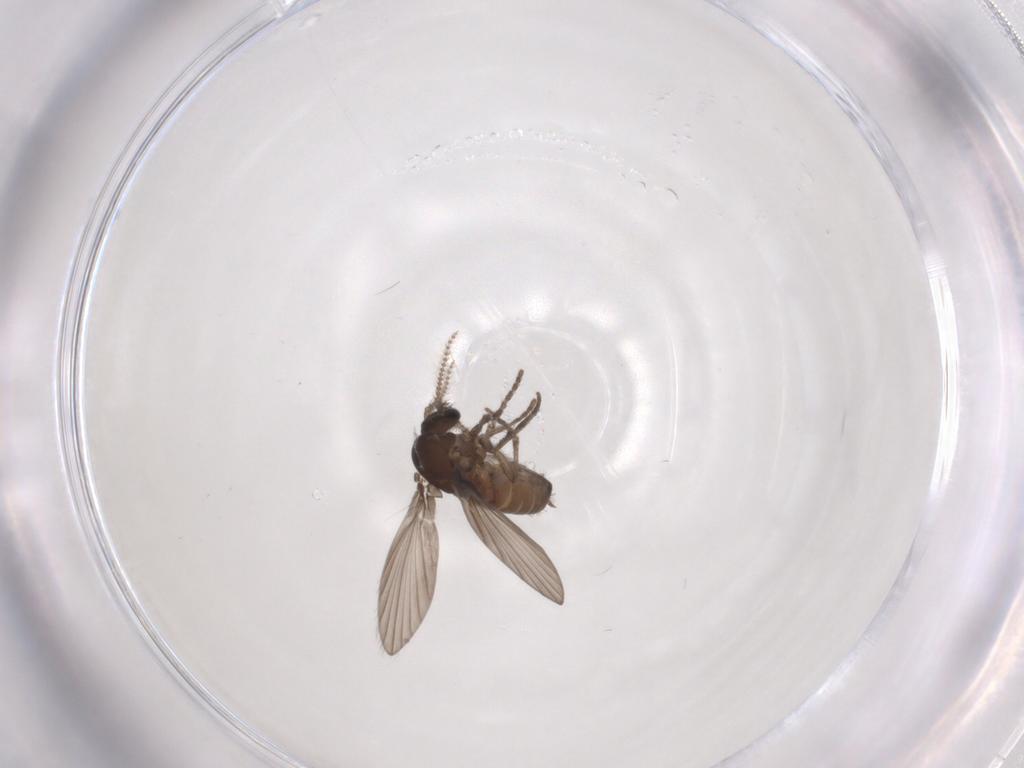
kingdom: Animalia
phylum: Arthropoda
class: Insecta
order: Diptera
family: Psychodidae
